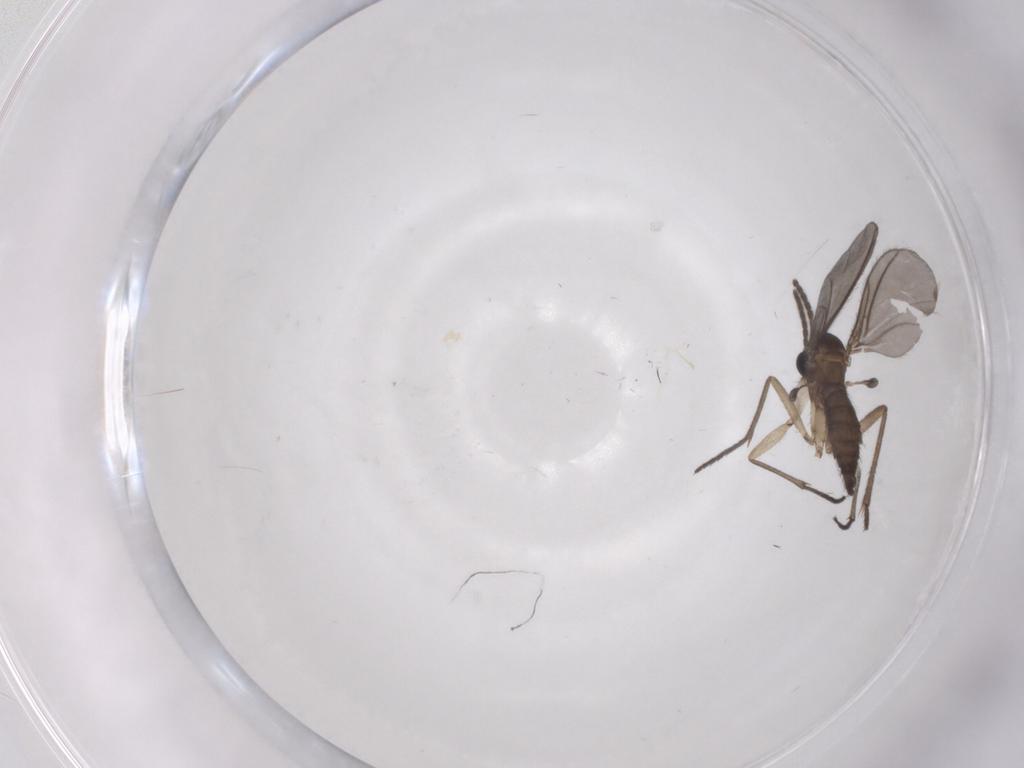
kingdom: Animalia
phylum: Arthropoda
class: Insecta
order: Diptera
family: Sciaridae
